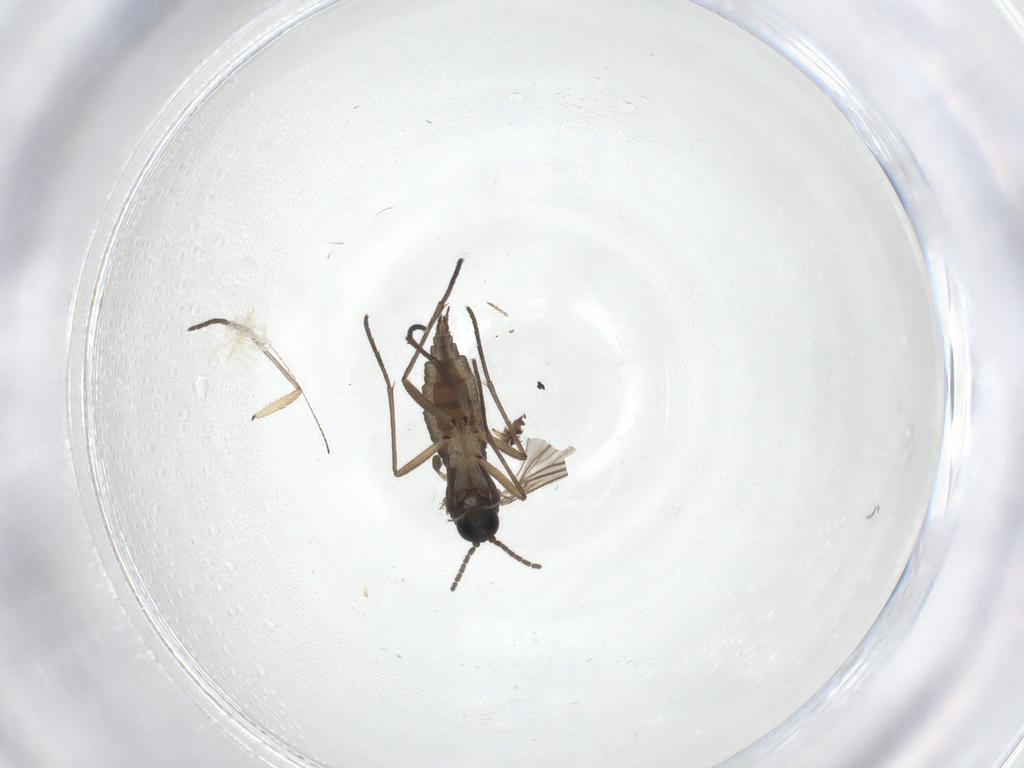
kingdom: Animalia
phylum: Arthropoda
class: Insecta
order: Diptera
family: Sciaridae
